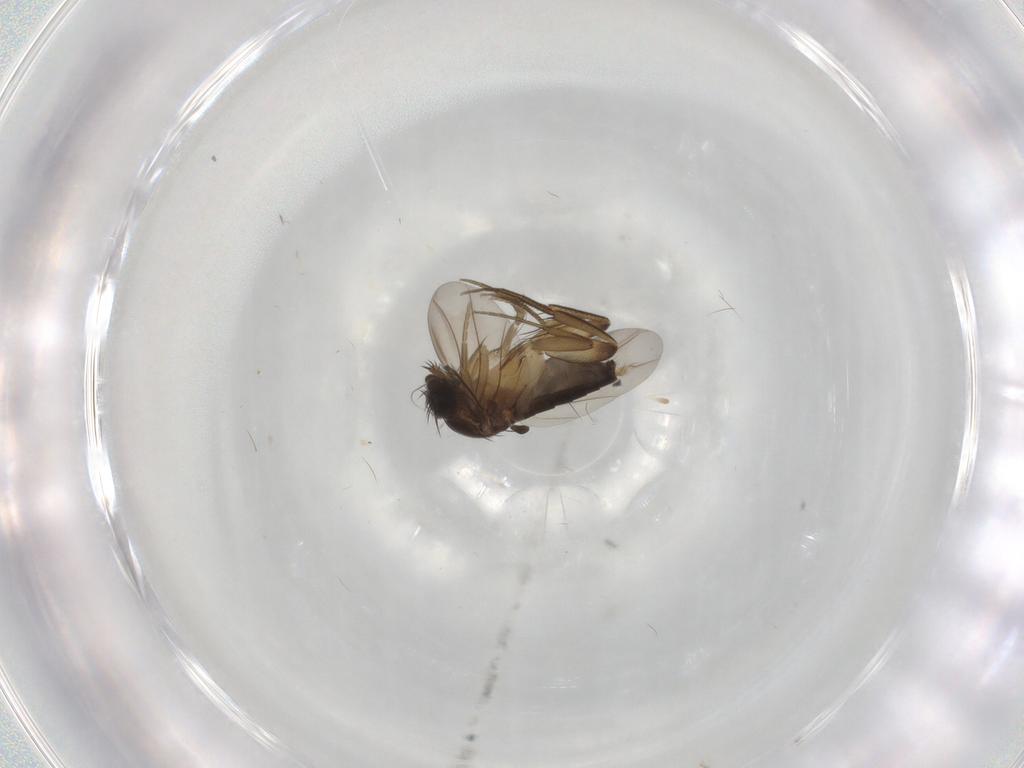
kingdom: Animalia
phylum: Arthropoda
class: Insecta
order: Diptera
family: Phoridae
